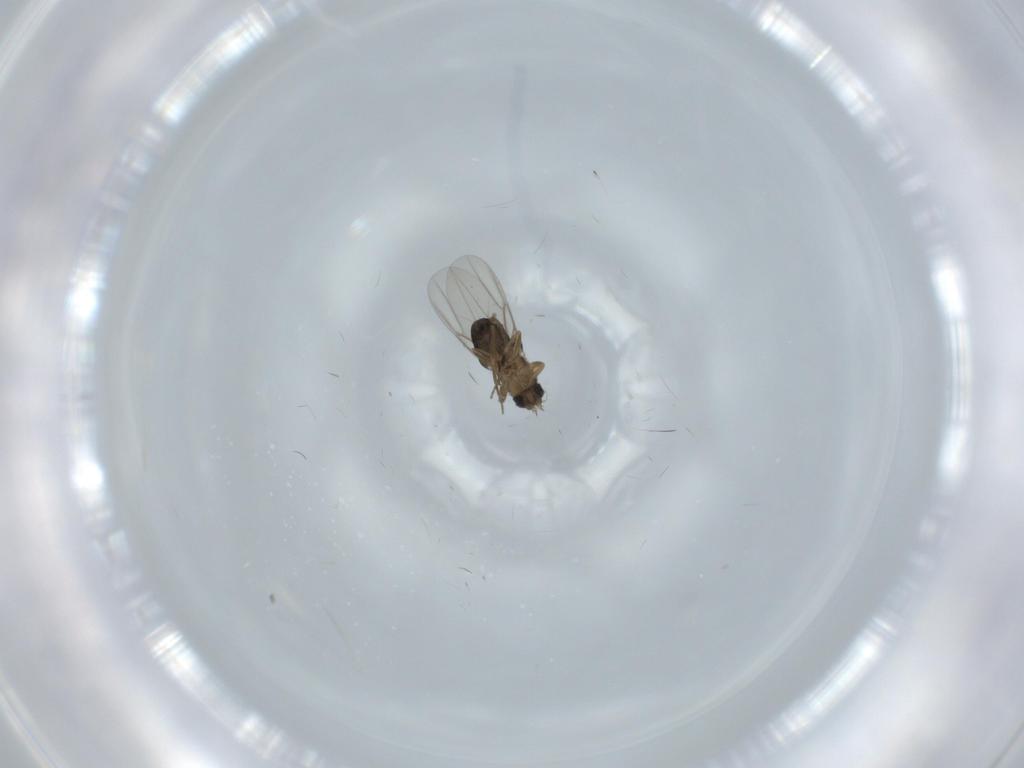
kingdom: Animalia
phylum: Arthropoda
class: Insecta
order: Diptera
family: Phoridae
